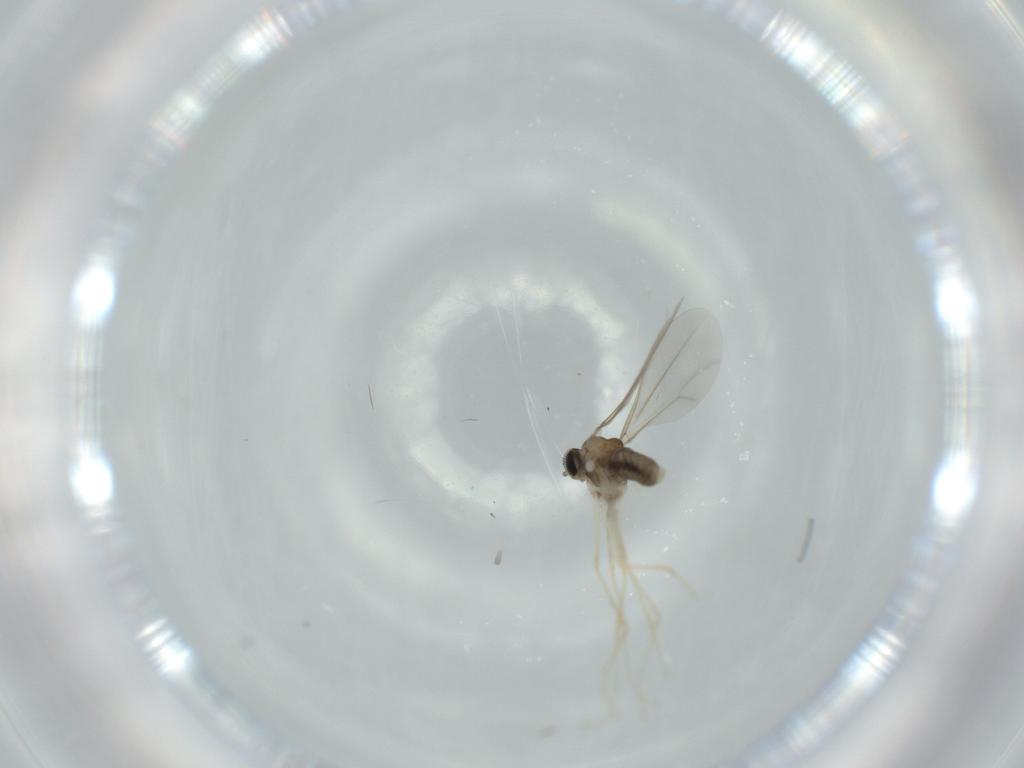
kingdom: Animalia
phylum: Arthropoda
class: Insecta
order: Diptera
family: Cecidomyiidae
